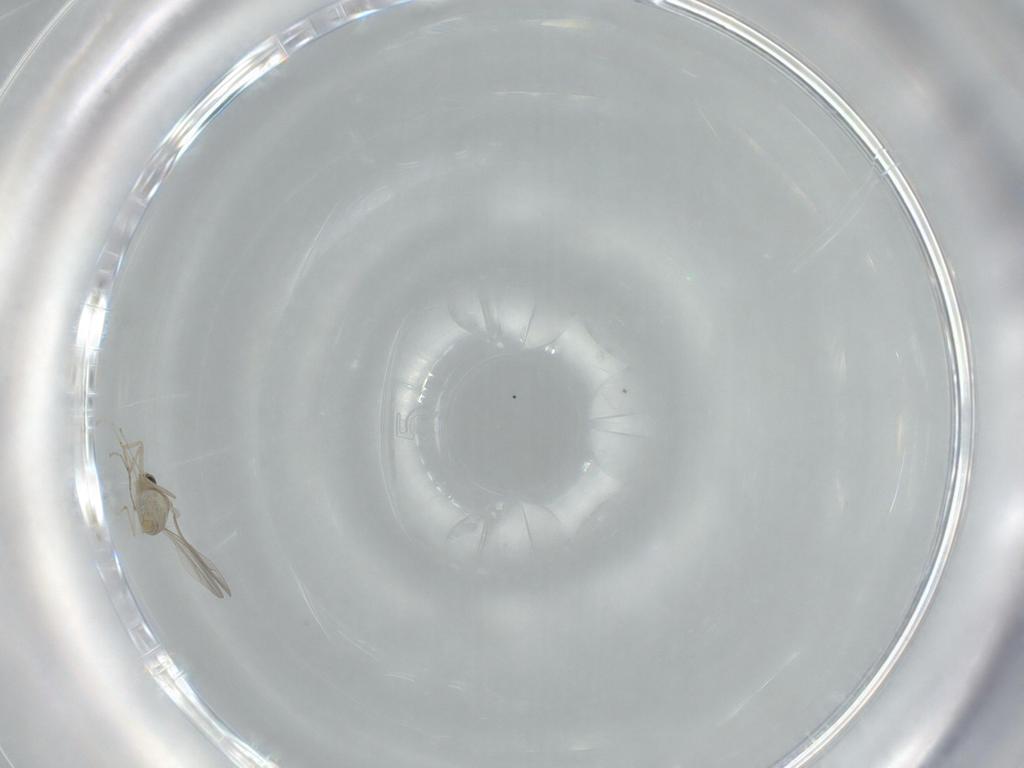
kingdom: Animalia
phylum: Arthropoda
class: Insecta
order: Diptera
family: Cecidomyiidae
